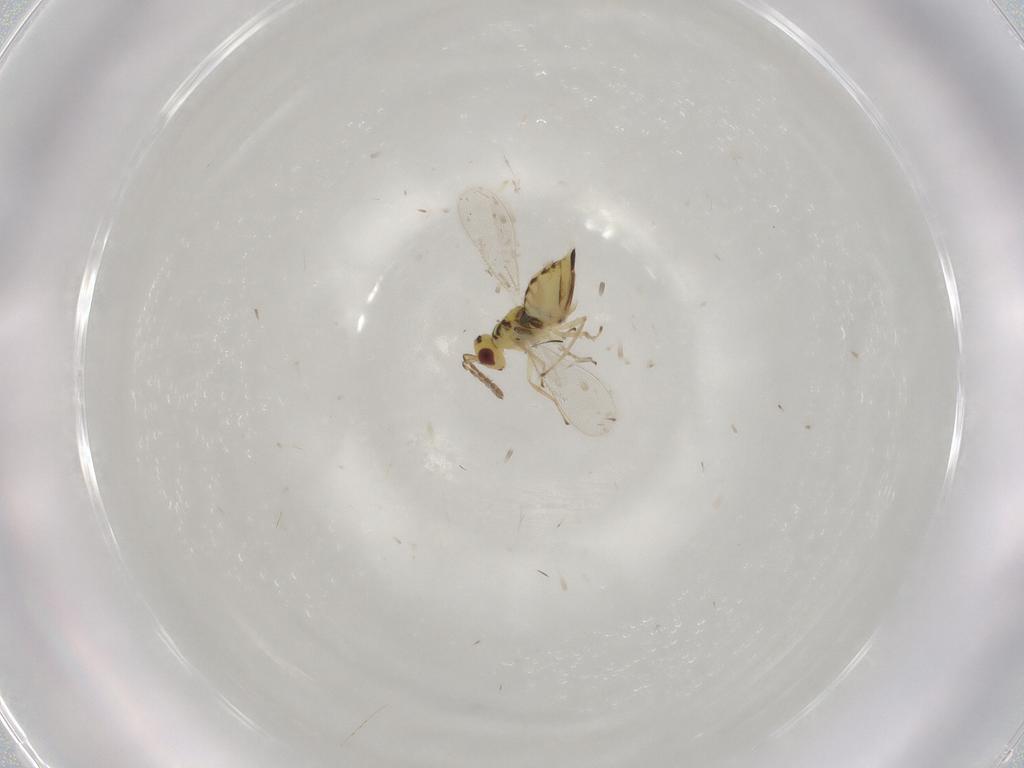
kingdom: Animalia
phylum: Arthropoda
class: Insecta
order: Hymenoptera
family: Eulophidae
